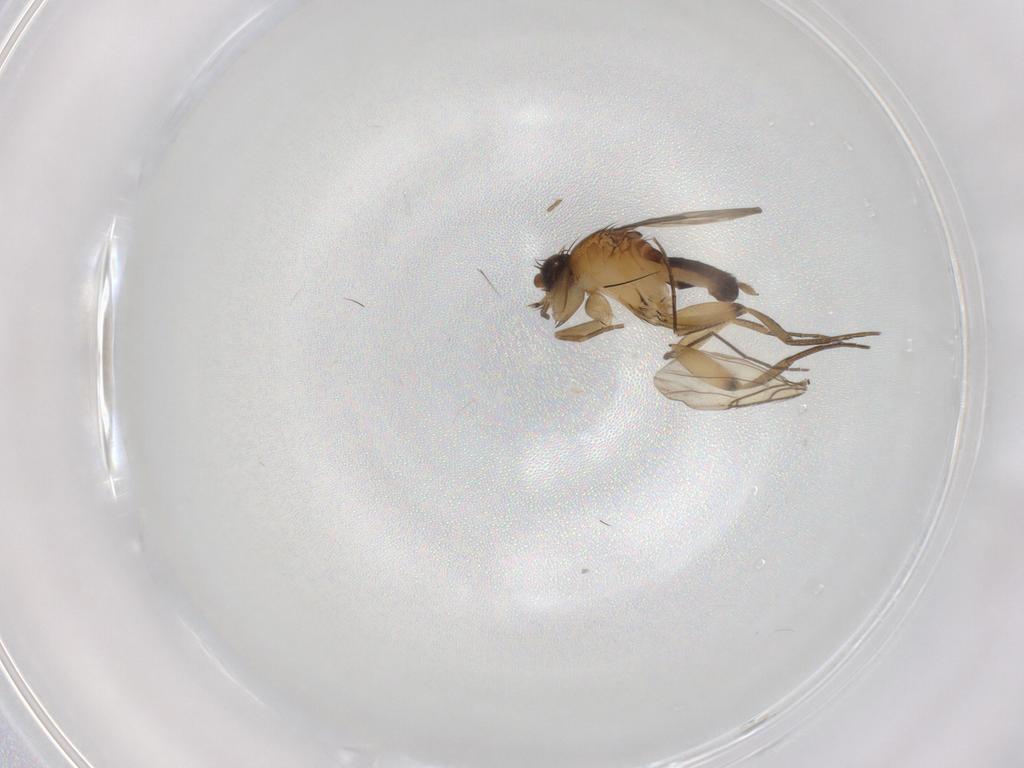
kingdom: Animalia
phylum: Arthropoda
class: Insecta
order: Diptera
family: Phoridae
